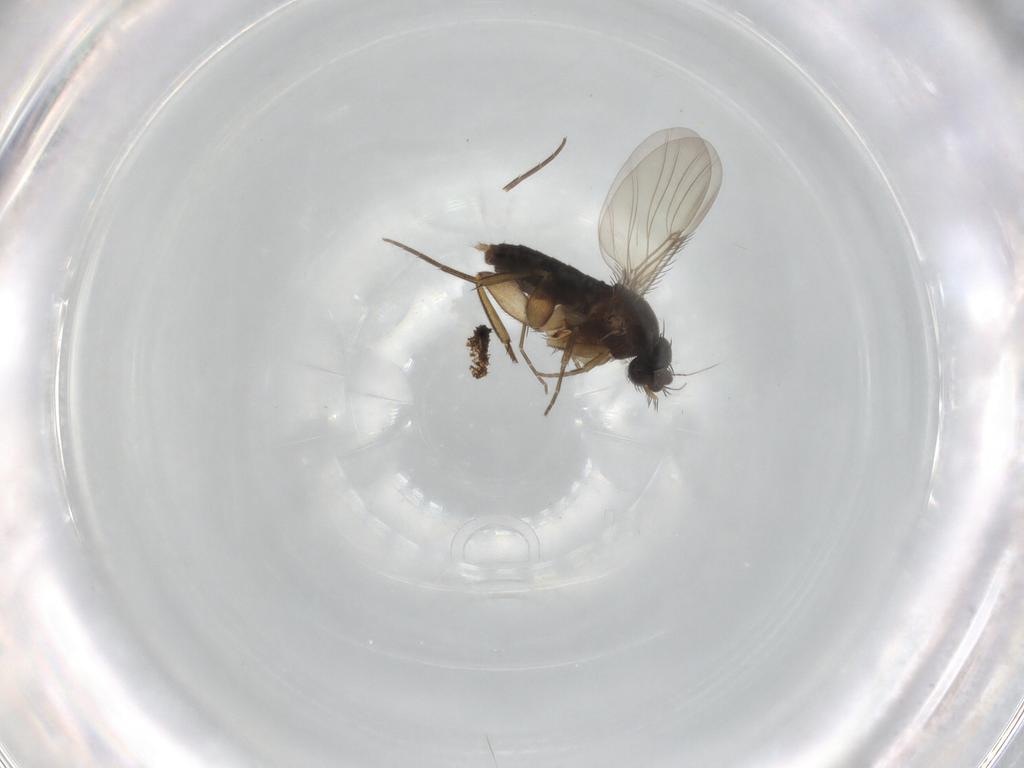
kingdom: Animalia
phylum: Arthropoda
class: Insecta
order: Diptera
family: Phoridae
